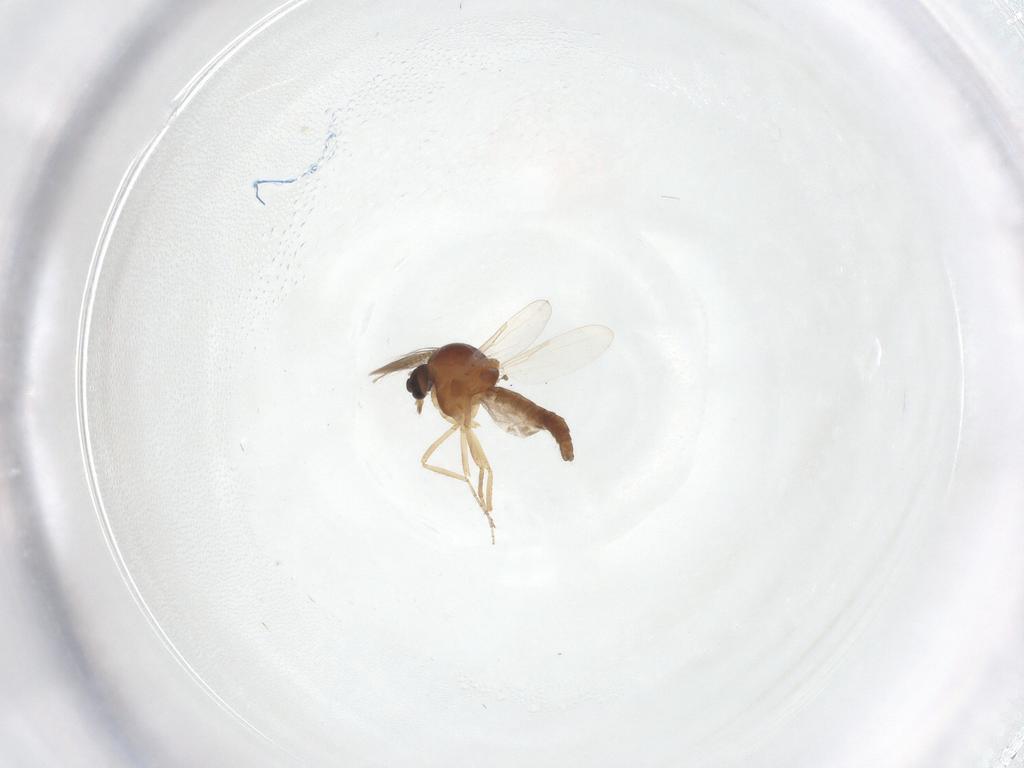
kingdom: Animalia
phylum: Arthropoda
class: Insecta
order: Diptera
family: Ceratopogonidae
